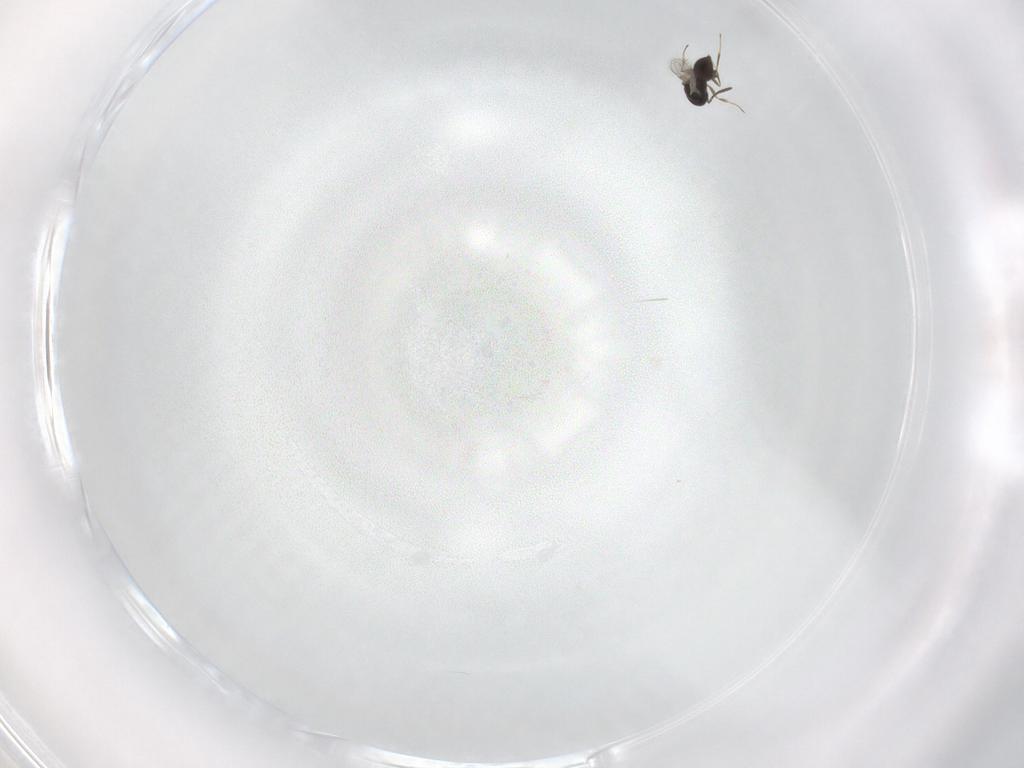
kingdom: Animalia
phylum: Arthropoda
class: Insecta
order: Hymenoptera
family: Scelionidae
